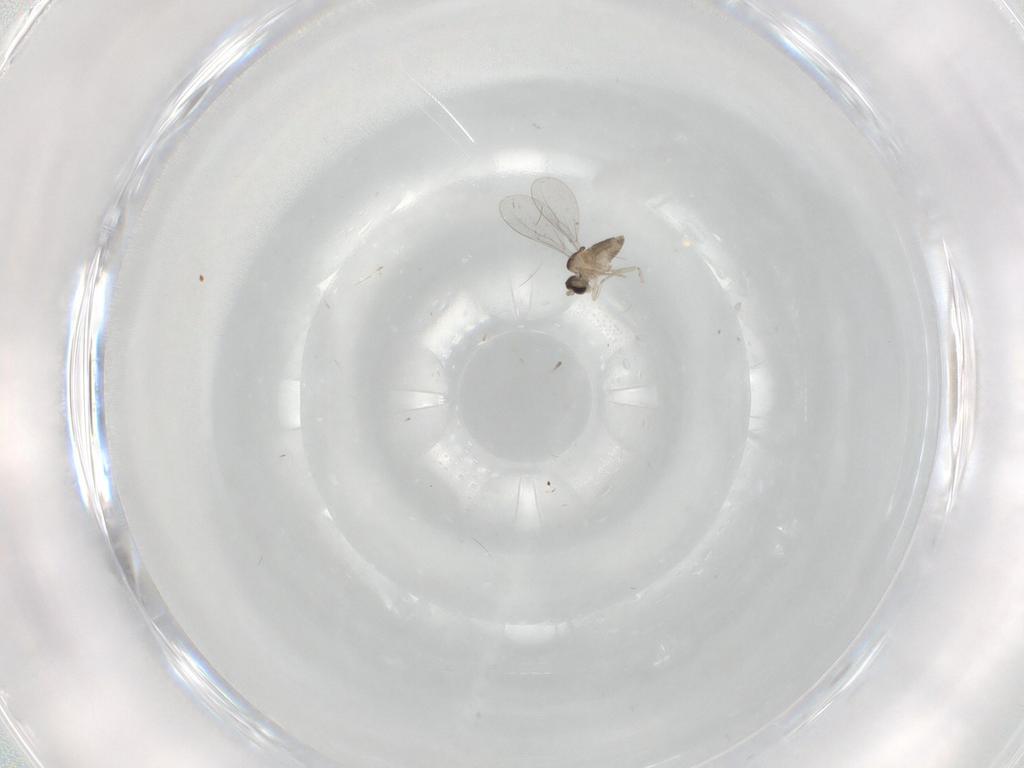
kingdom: Animalia
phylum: Arthropoda
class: Insecta
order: Diptera
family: Cecidomyiidae
